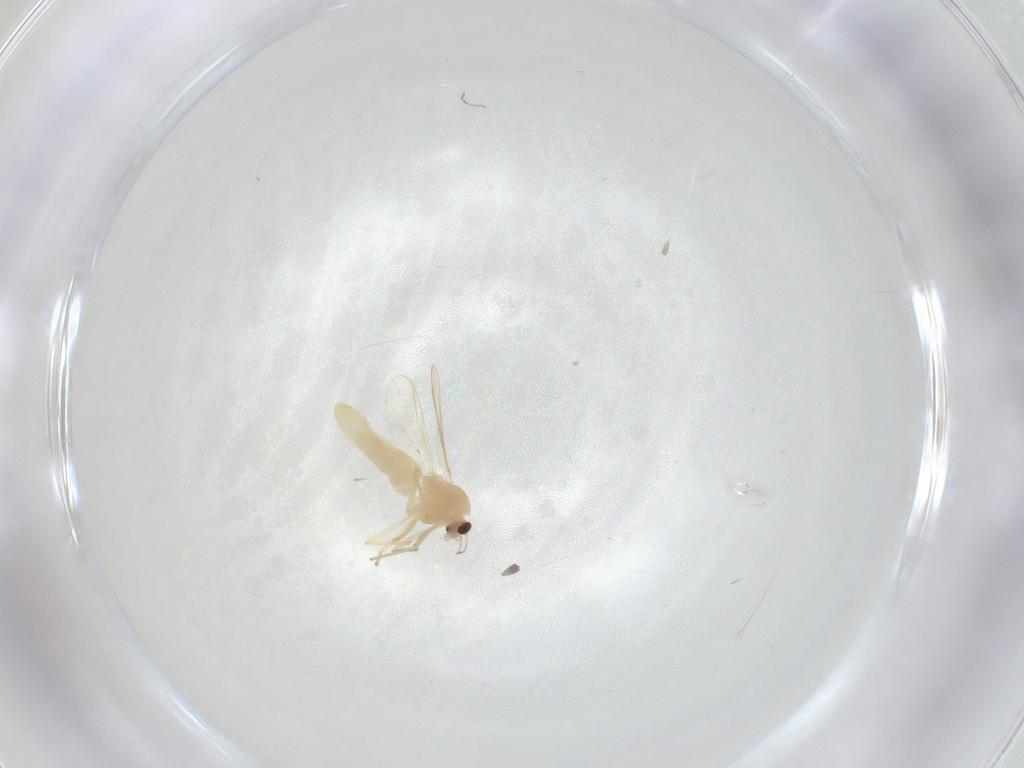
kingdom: Animalia
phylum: Arthropoda
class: Insecta
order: Diptera
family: Chironomidae
